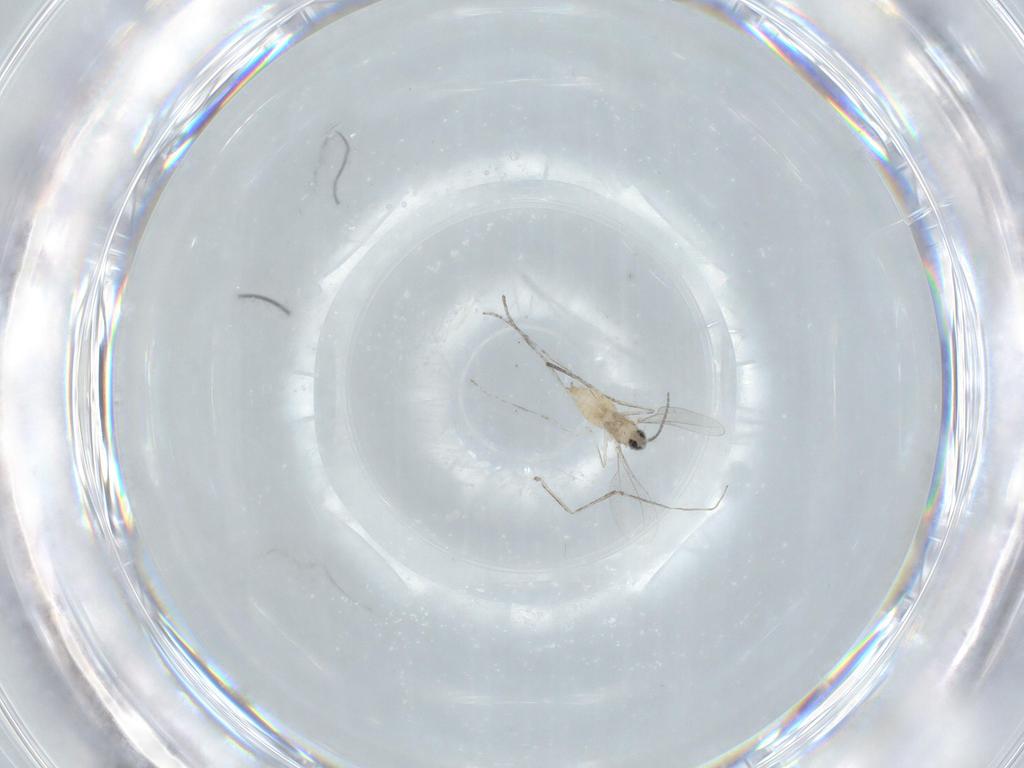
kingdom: Animalia
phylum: Arthropoda
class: Insecta
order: Diptera
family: Cecidomyiidae
